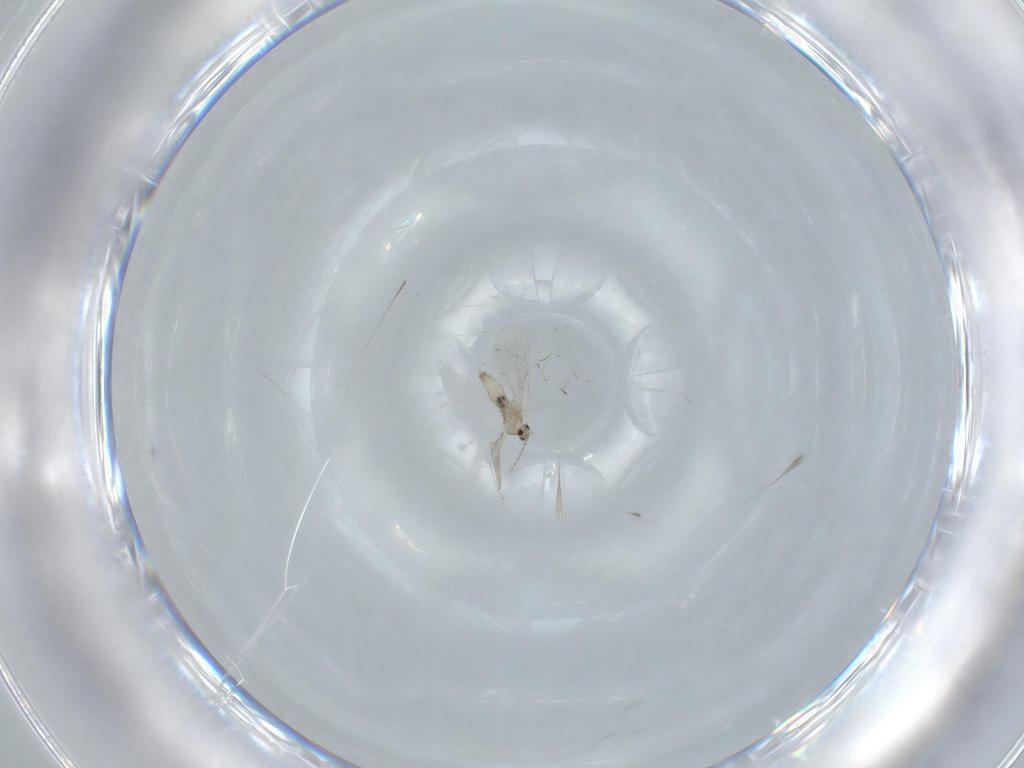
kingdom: Animalia
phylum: Arthropoda
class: Insecta
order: Diptera
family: Cecidomyiidae
